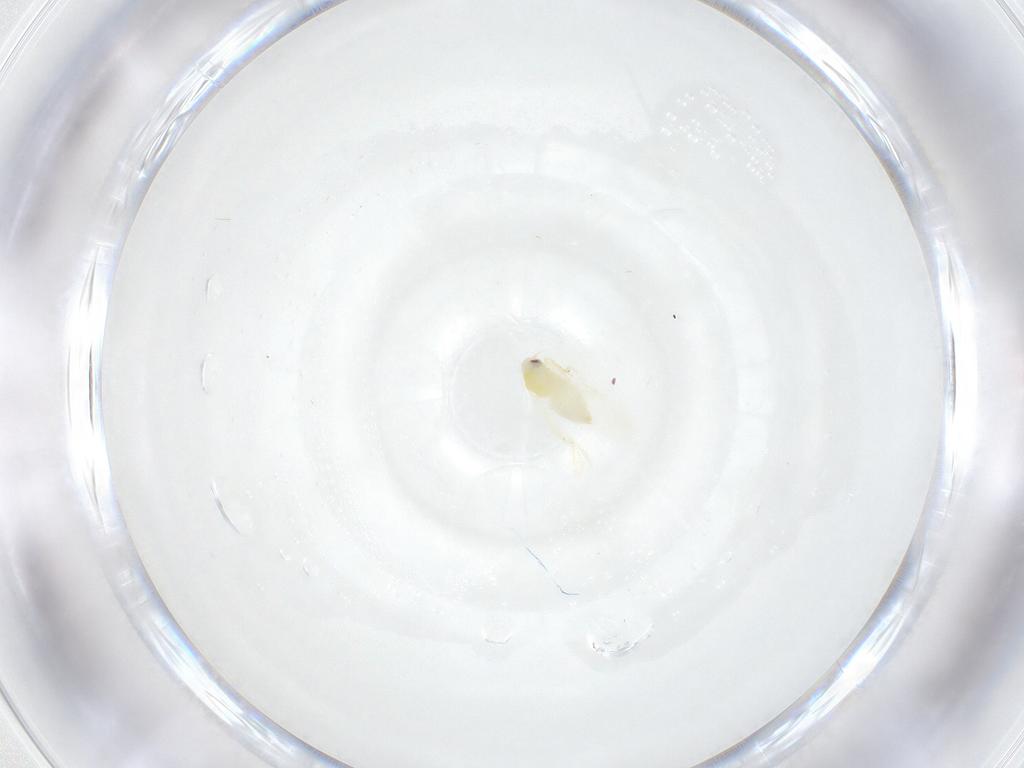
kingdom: Animalia
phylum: Arthropoda
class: Insecta
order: Hemiptera
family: Aleyrodidae
